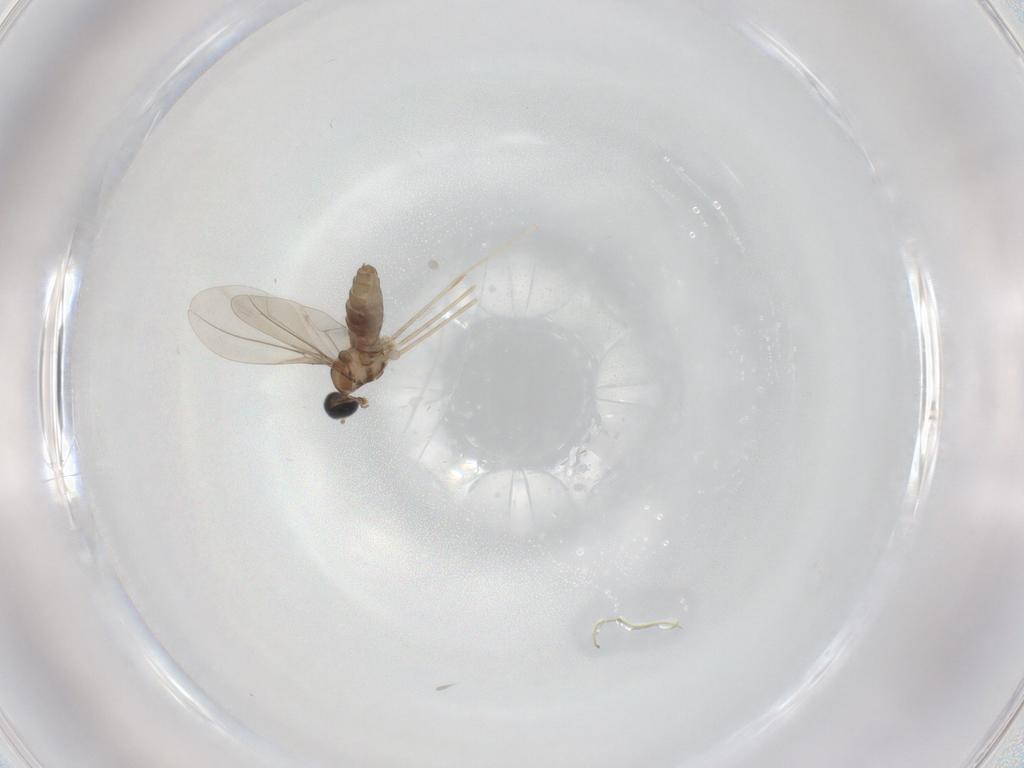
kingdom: Animalia
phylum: Arthropoda
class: Insecta
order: Diptera
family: Cecidomyiidae
